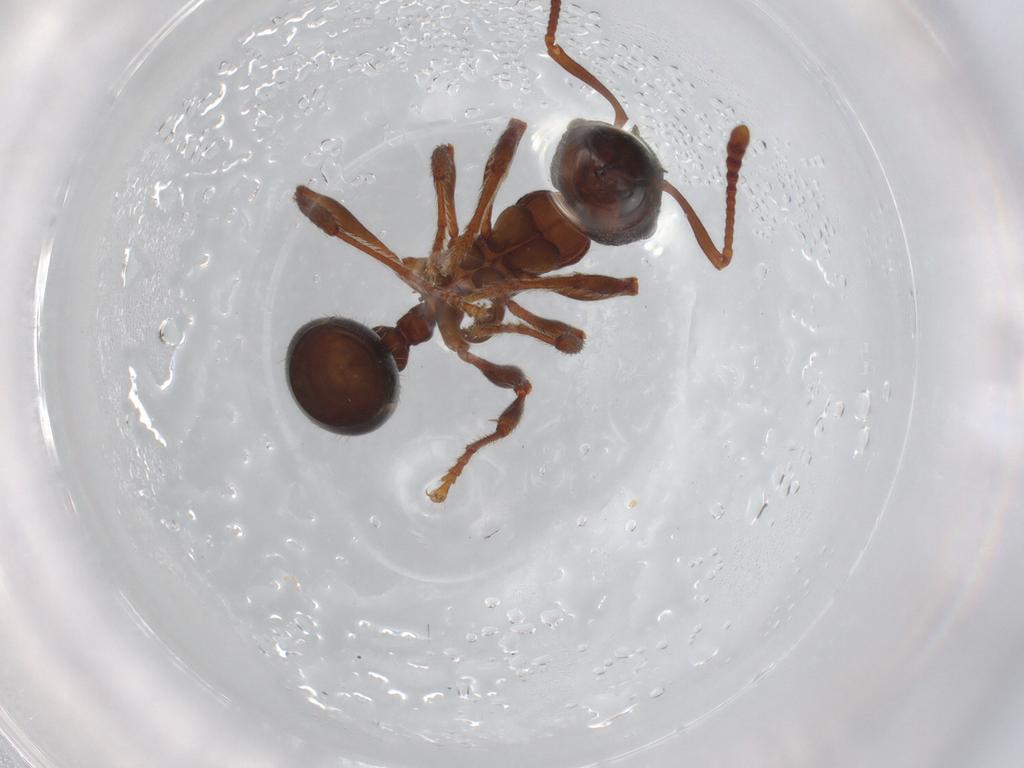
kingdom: Animalia
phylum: Arthropoda
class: Insecta
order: Hymenoptera
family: Formicidae
